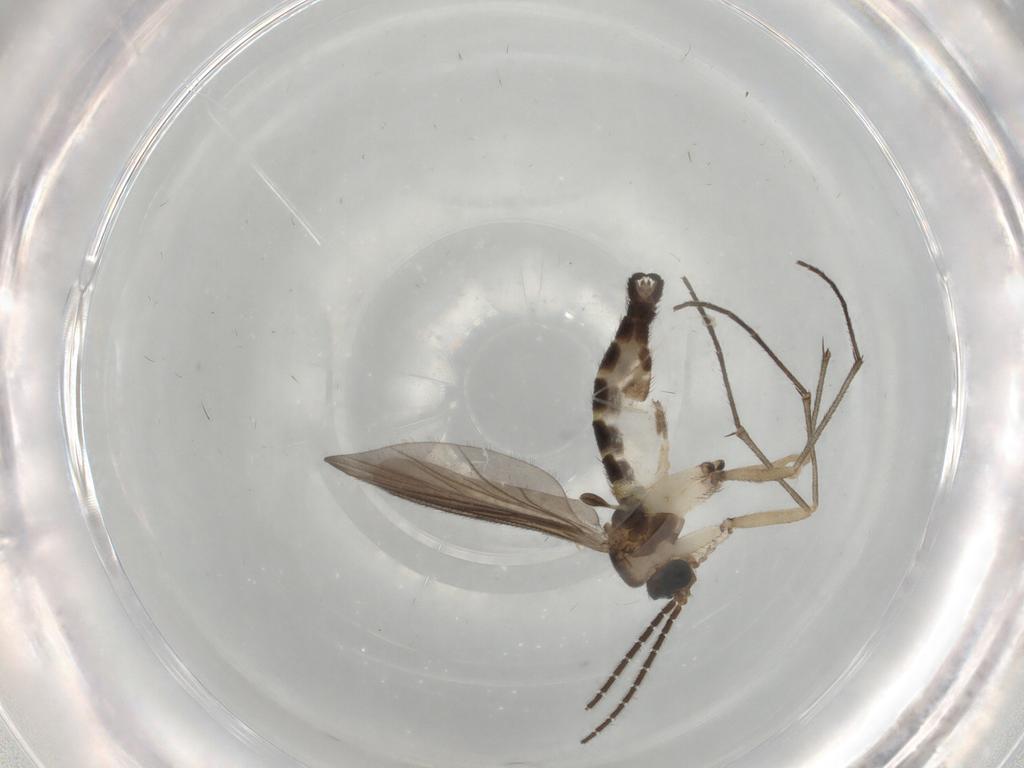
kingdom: Animalia
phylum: Arthropoda
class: Insecta
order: Diptera
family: Sciaridae
